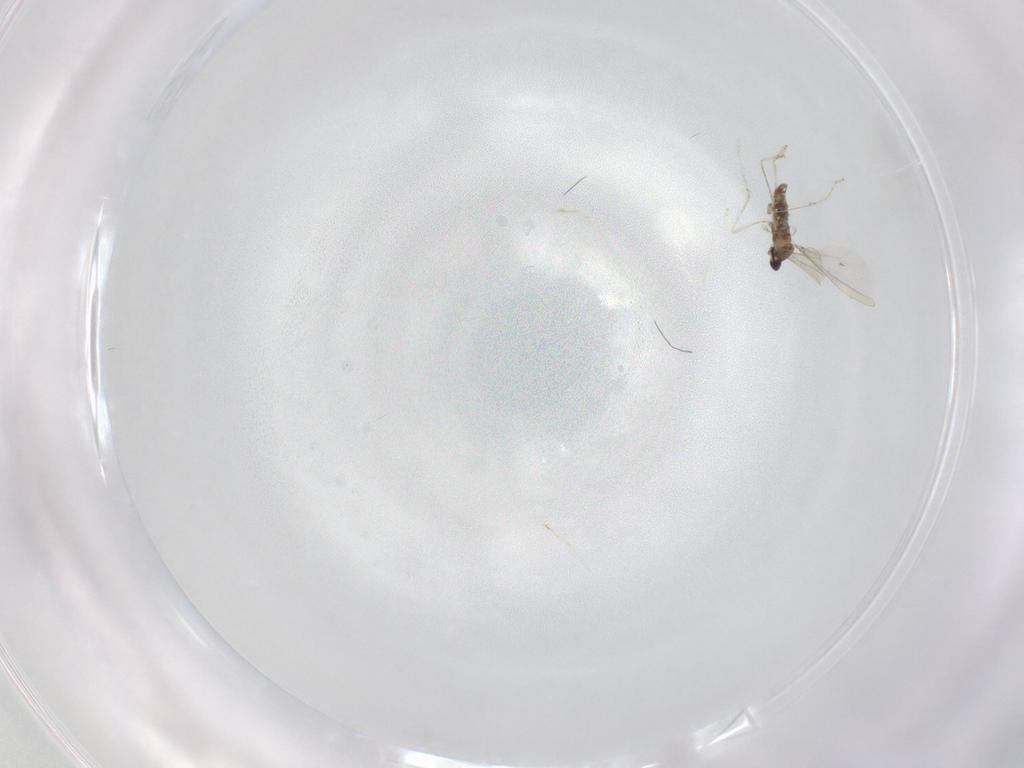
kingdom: Animalia
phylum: Arthropoda
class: Insecta
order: Diptera
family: Cecidomyiidae
